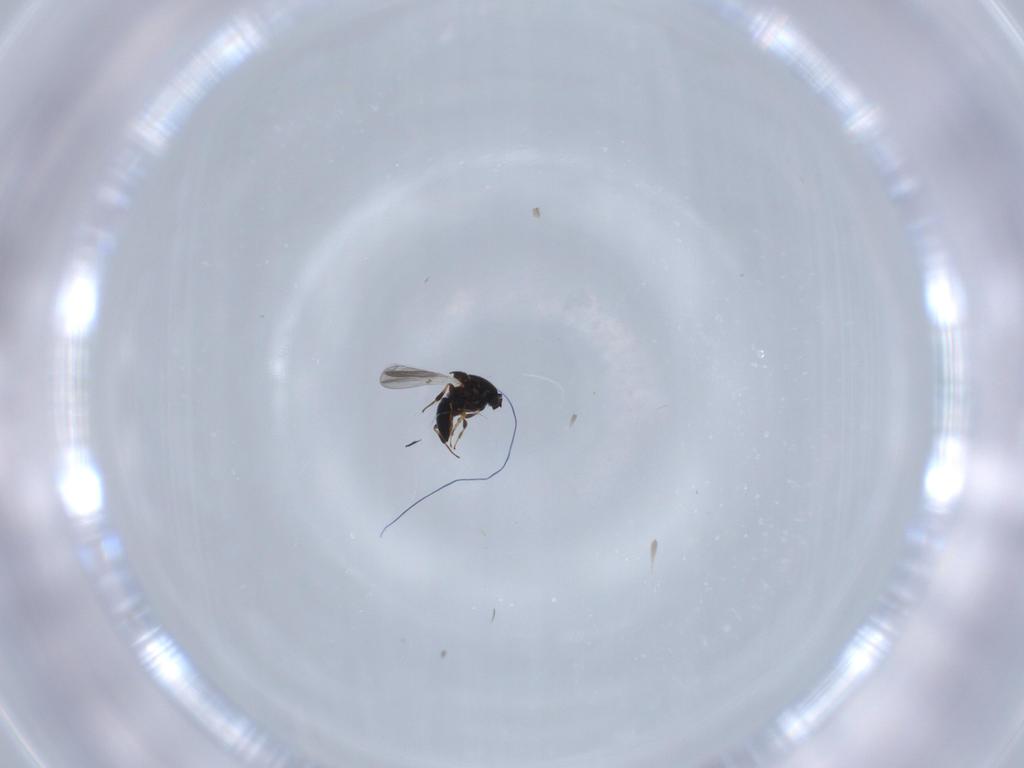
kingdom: Animalia
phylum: Arthropoda
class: Insecta
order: Hymenoptera
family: Platygastridae
